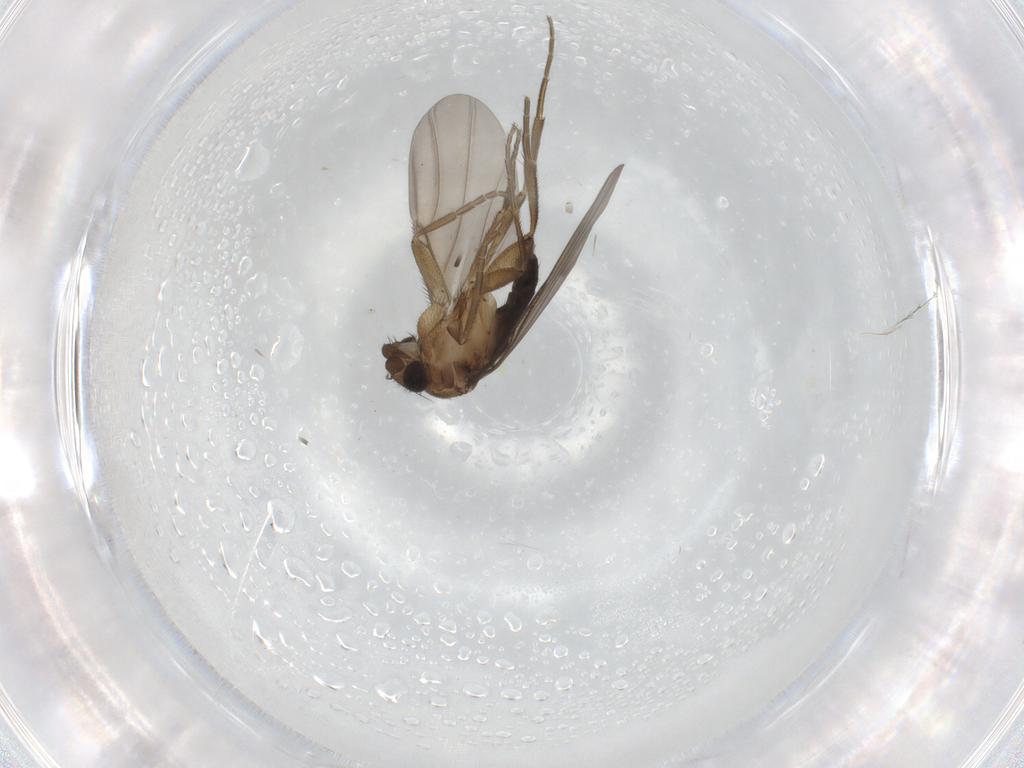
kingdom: Animalia
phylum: Arthropoda
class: Insecta
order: Diptera
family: Phoridae
